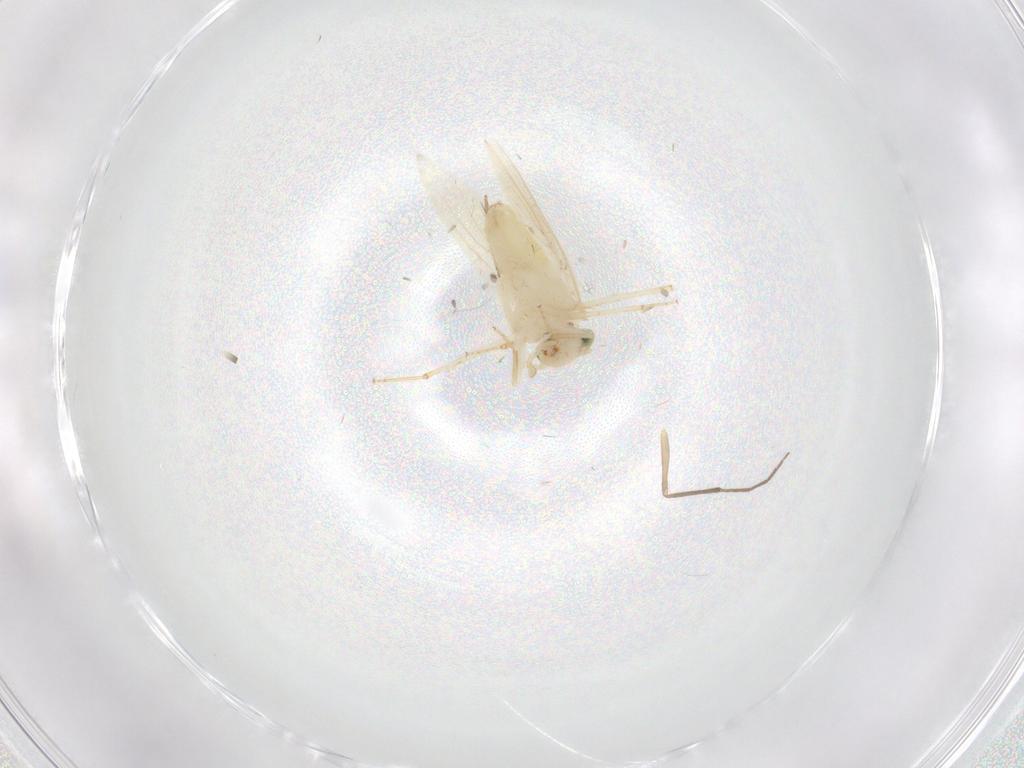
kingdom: Animalia
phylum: Arthropoda
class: Insecta
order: Psocodea
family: Lepidopsocidae
